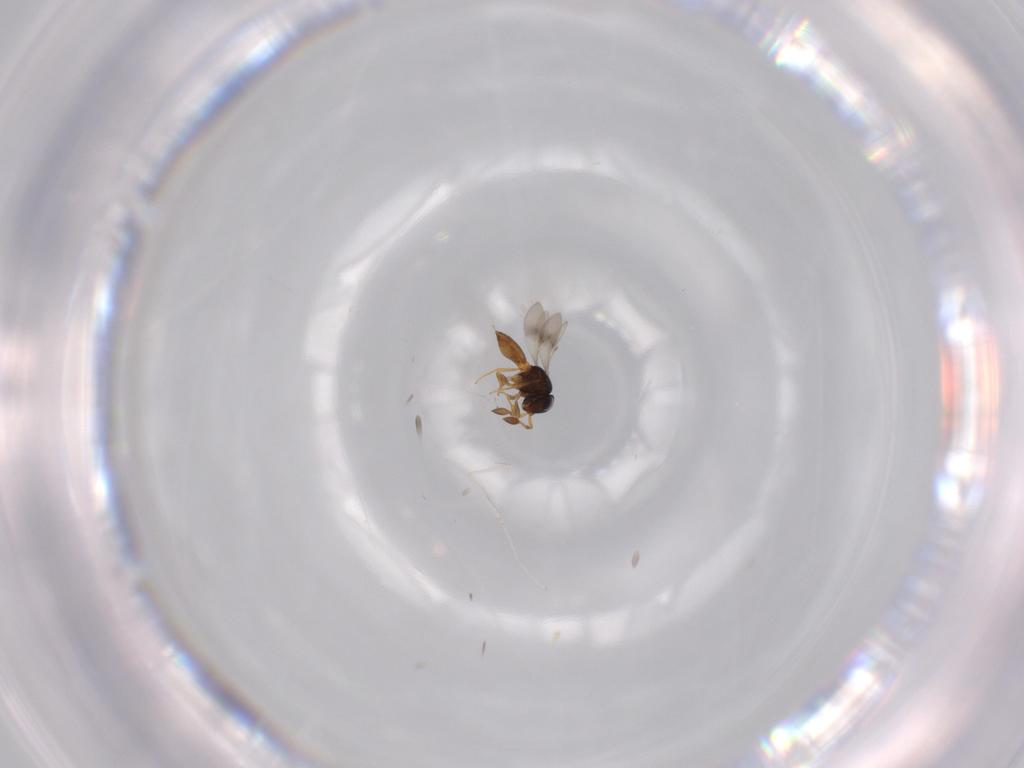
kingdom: Animalia
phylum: Arthropoda
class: Insecta
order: Hymenoptera
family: Scelionidae
